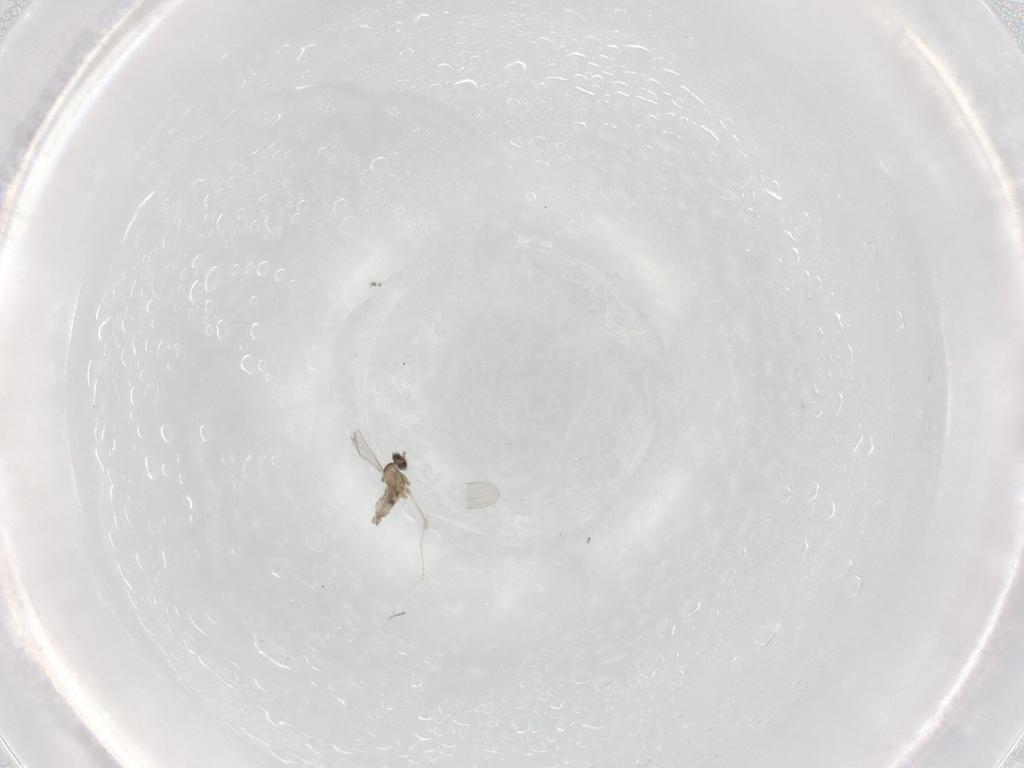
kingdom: Animalia
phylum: Arthropoda
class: Insecta
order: Diptera
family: Cecidomyiidae
